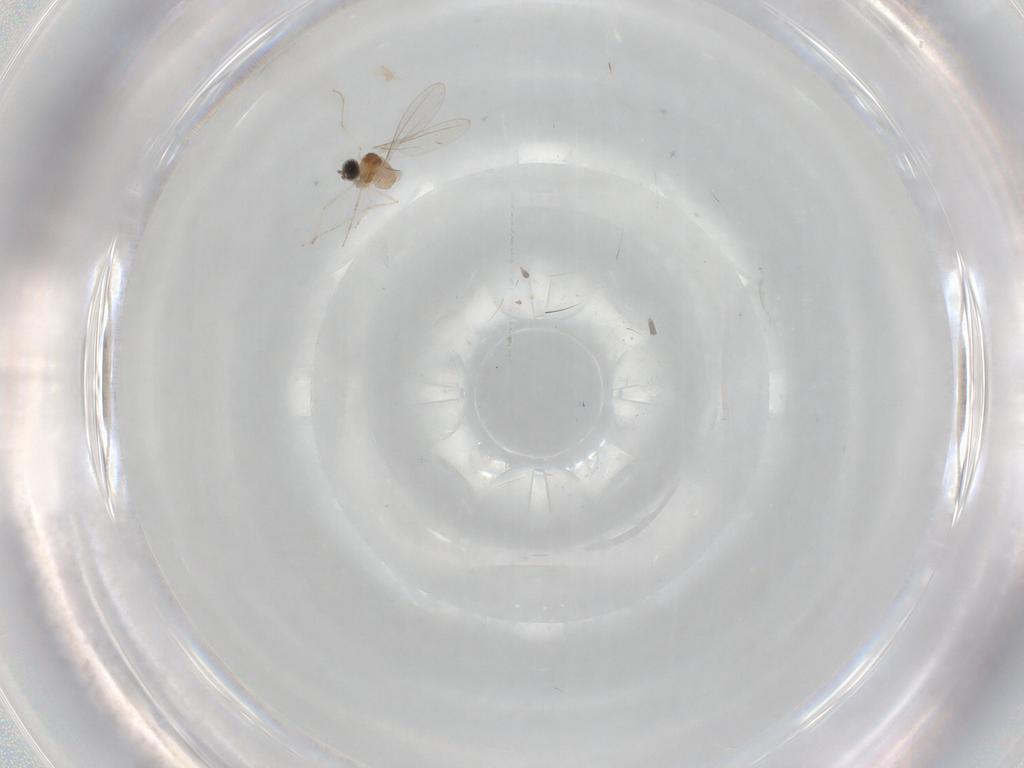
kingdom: Animalia
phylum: Arthropoda
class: Insecta
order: Diptera
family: Cecidomyiidae
